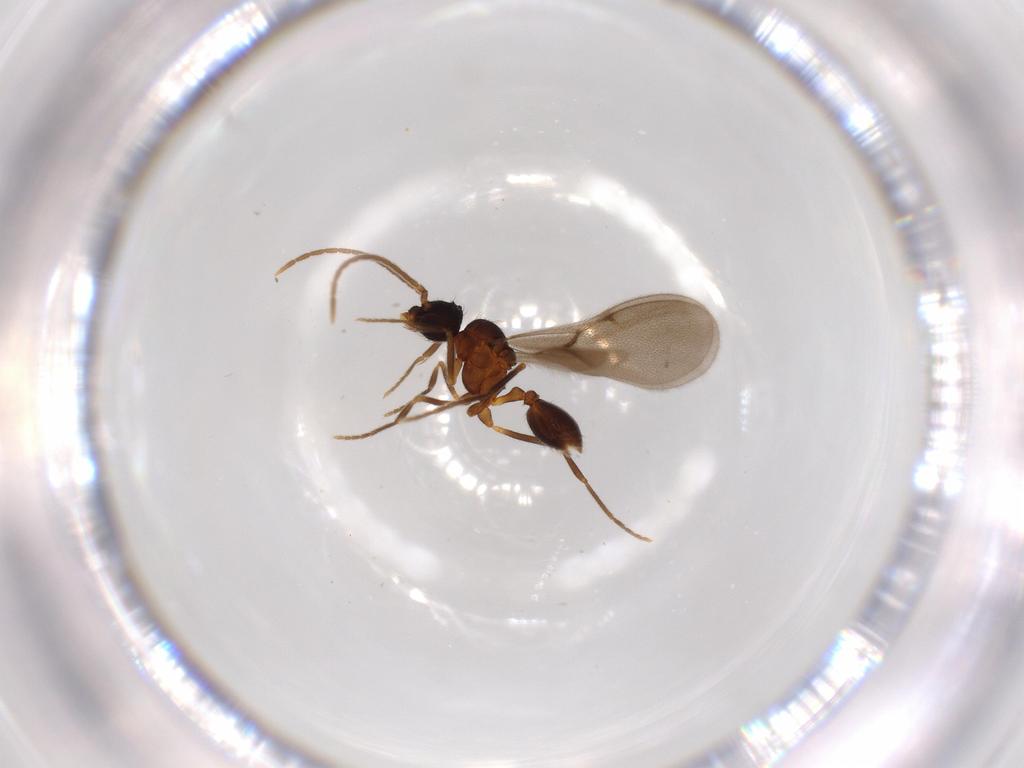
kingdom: Animalia
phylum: Arthropoda
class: Insecta
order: Hymenoptera
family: Formicidae
